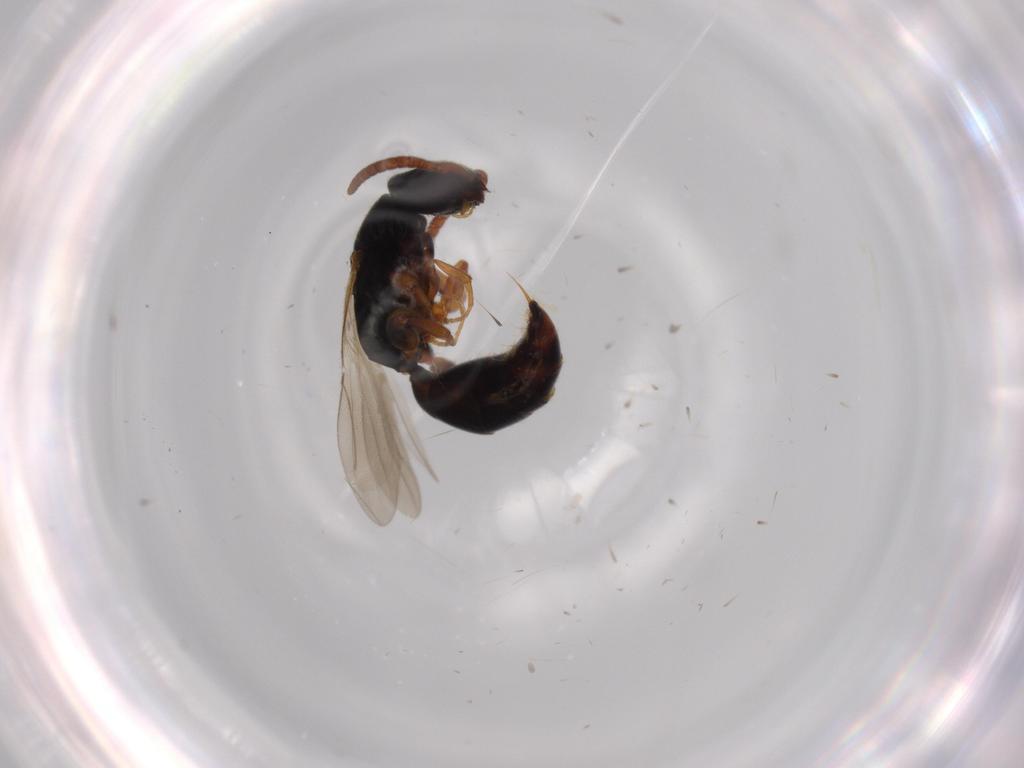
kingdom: Animalia
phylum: Arthropoda
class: Insecta
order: Hymenoptera
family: Bethylidae
